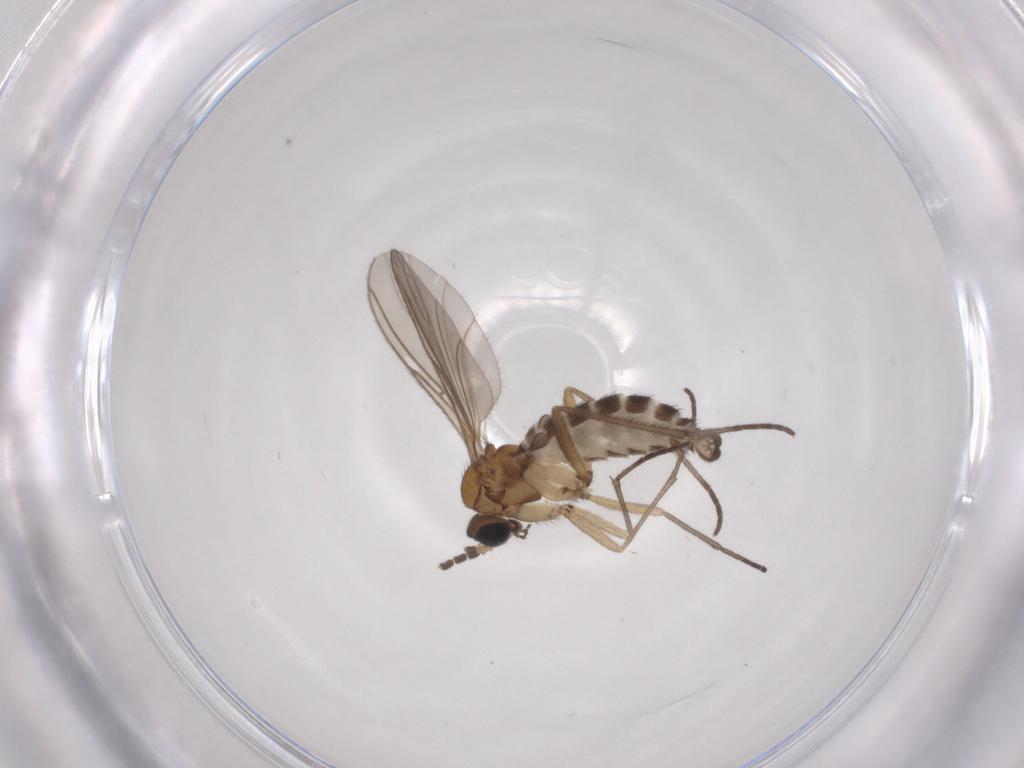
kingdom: Animalia
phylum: Arthropoda
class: Insecta
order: Diptera
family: Sciaridae
